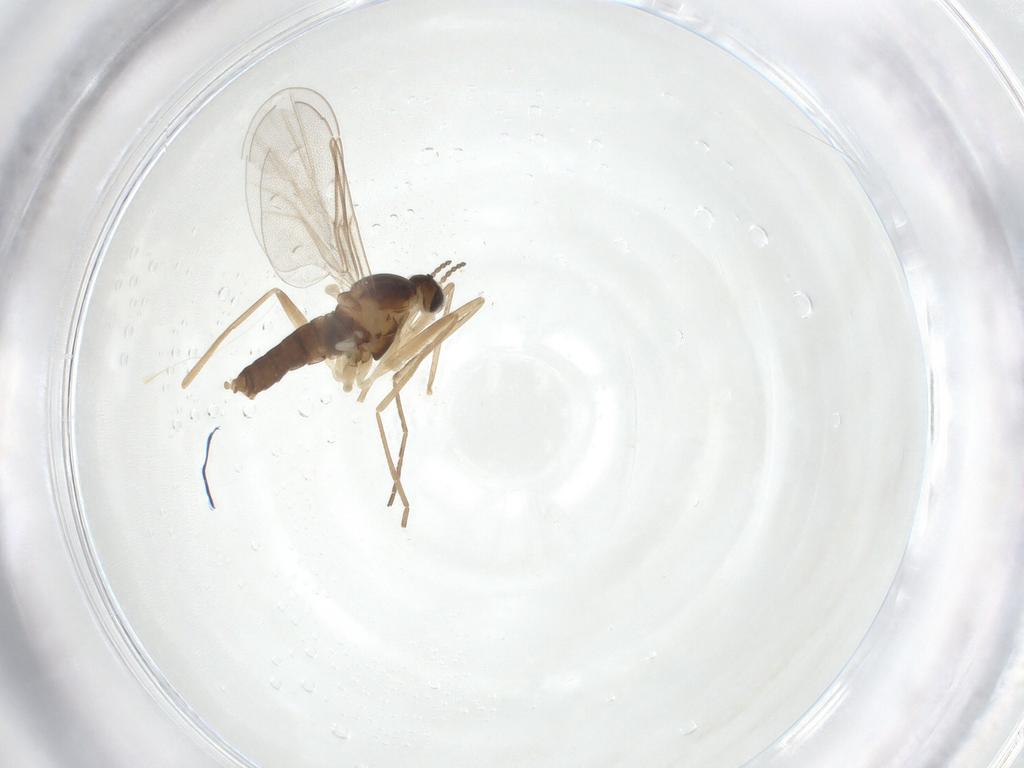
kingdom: Animalia
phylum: Arthropoda
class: Insecta
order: Diptera
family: Cecidomyiidae
